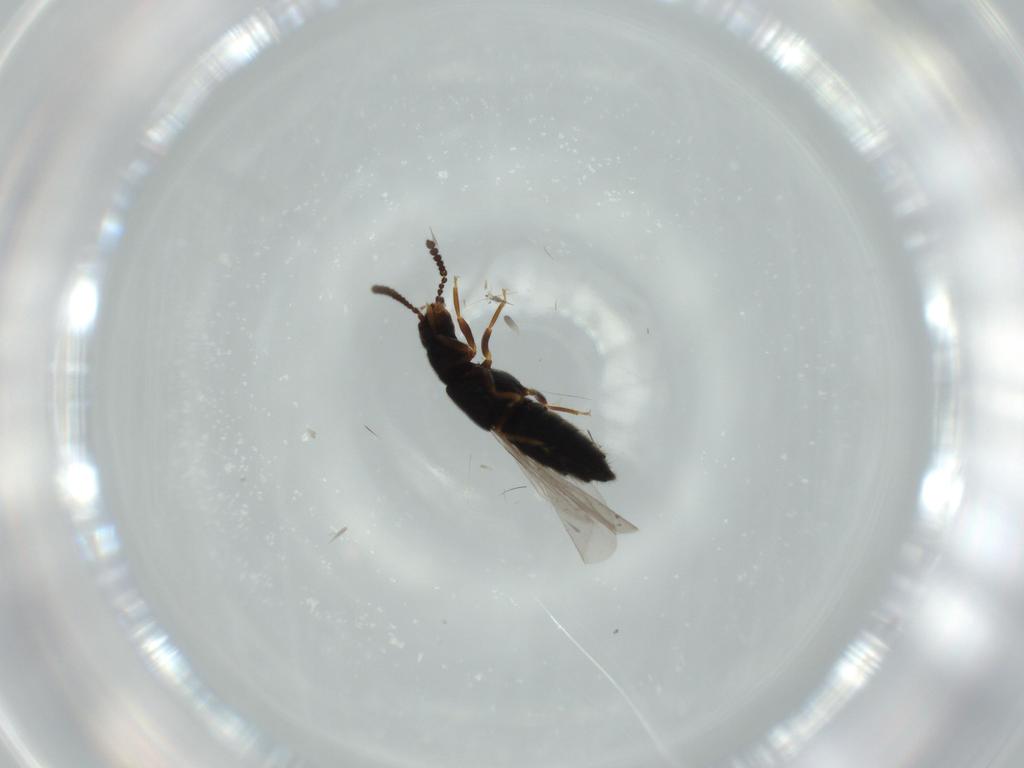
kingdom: Animalia
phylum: Arthropoda
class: Insecta
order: Coleoptera
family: Staphylinidae
